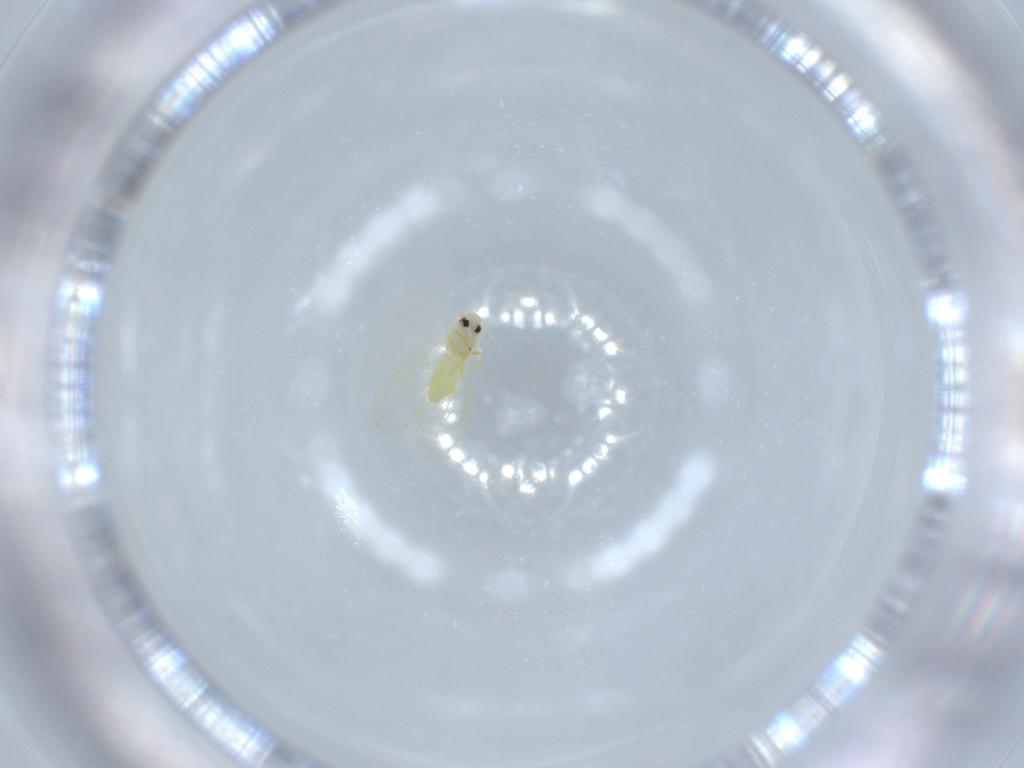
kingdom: Animalia
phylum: Arthropoda
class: Insecta
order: Hemiptera
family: Aleyrodidae
